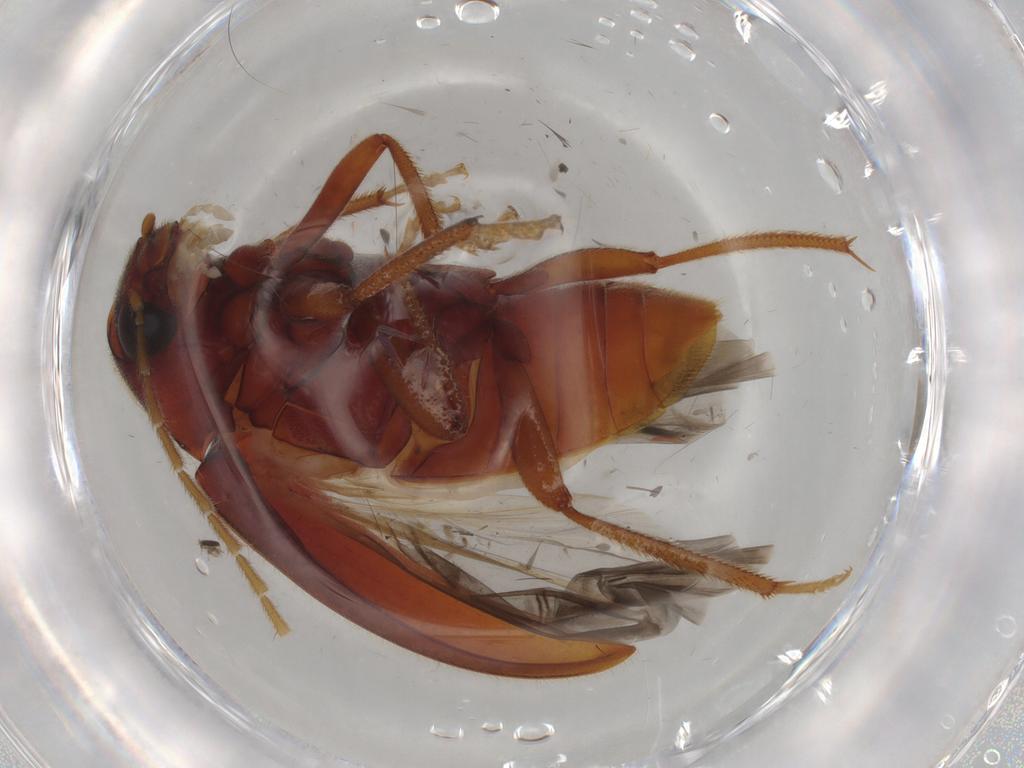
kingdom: Animalia
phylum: Arthropoda
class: Insecta
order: Coleoptera
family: Ptilodactylidae
